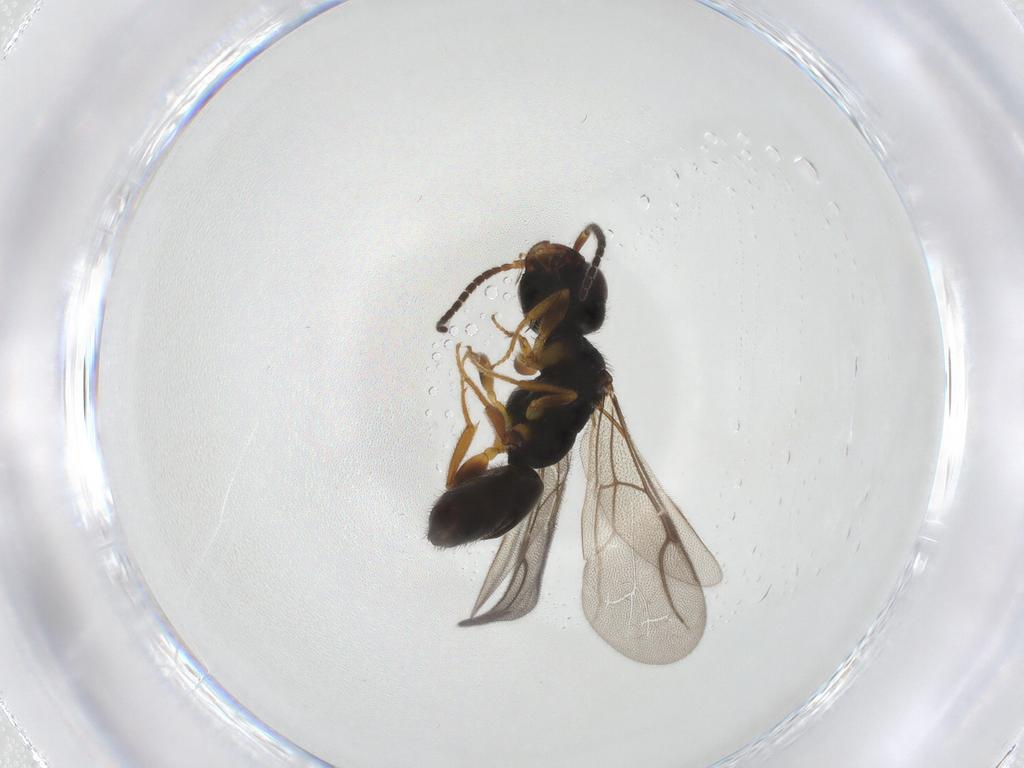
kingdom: Animalia
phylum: Arthropoda
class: Insecta
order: Hymenoptera
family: Bethylidae
